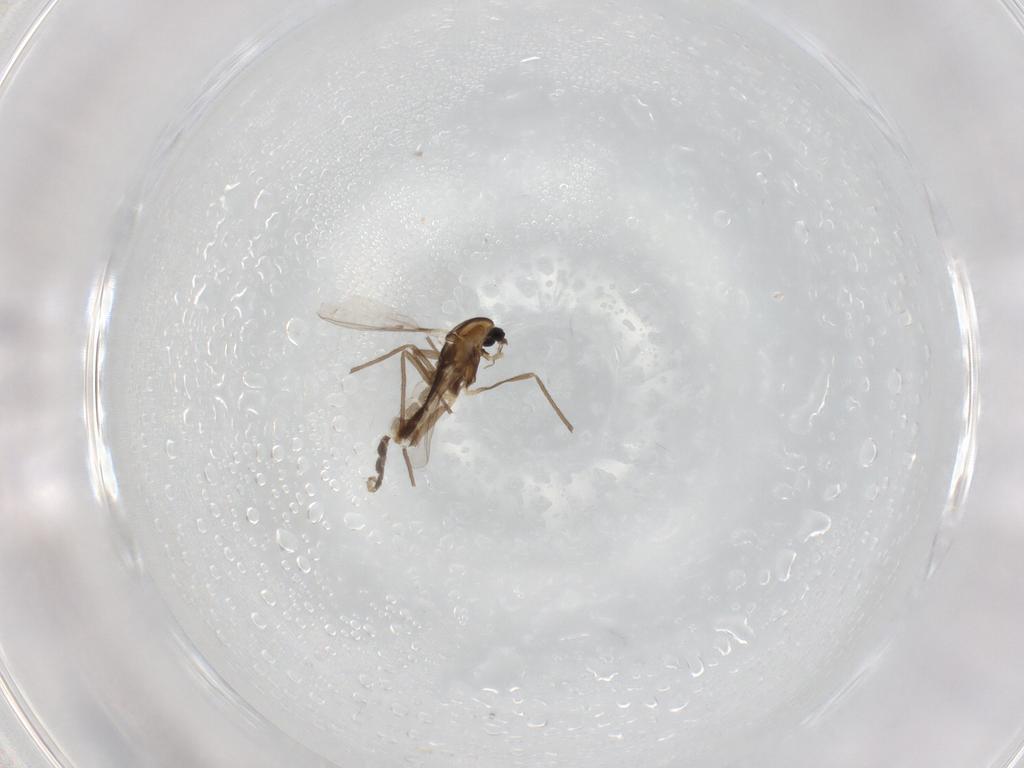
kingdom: Animalia
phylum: Arthropoda
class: Insecta
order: Diptera
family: Chironomidae
